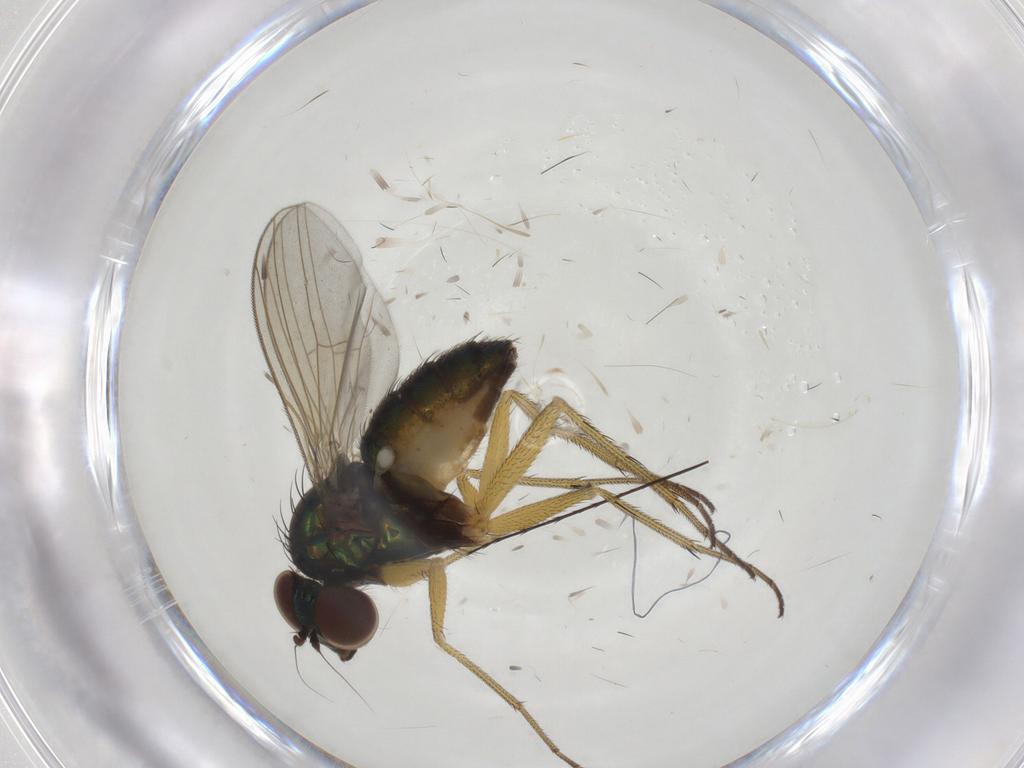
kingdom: Animalia
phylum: Arthropoda
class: Insecta
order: Diptera
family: Dolichopodidae
